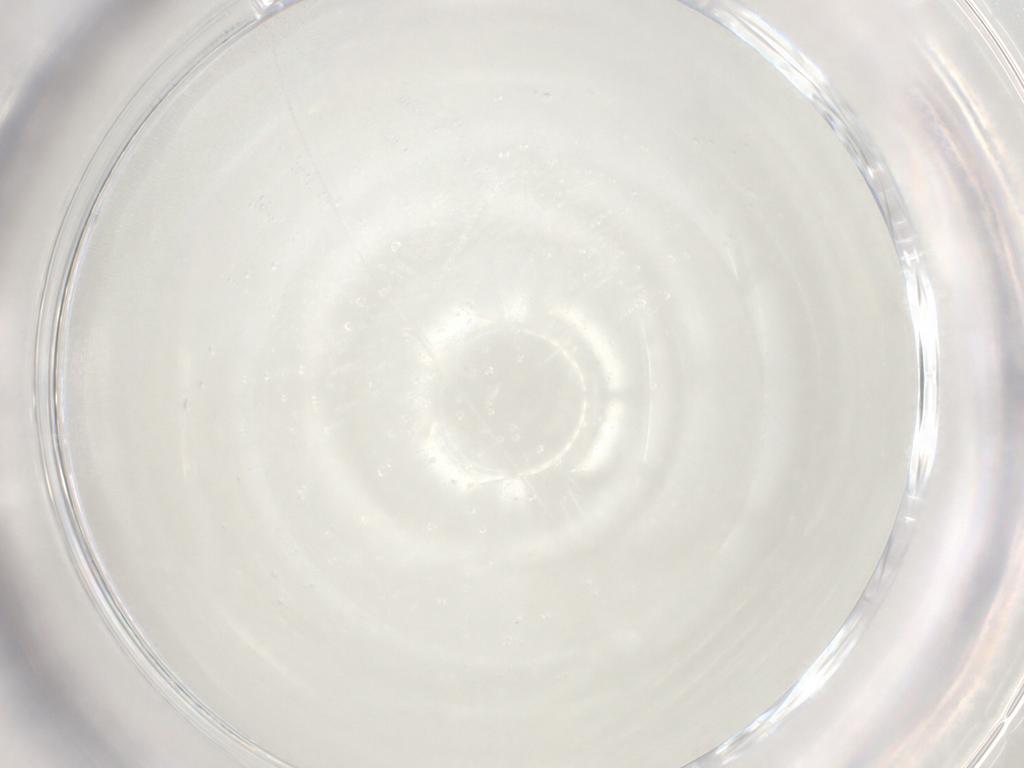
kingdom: Animalia
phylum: Arthropoda
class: Insecta
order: Diptera
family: Cecidomyiidae
